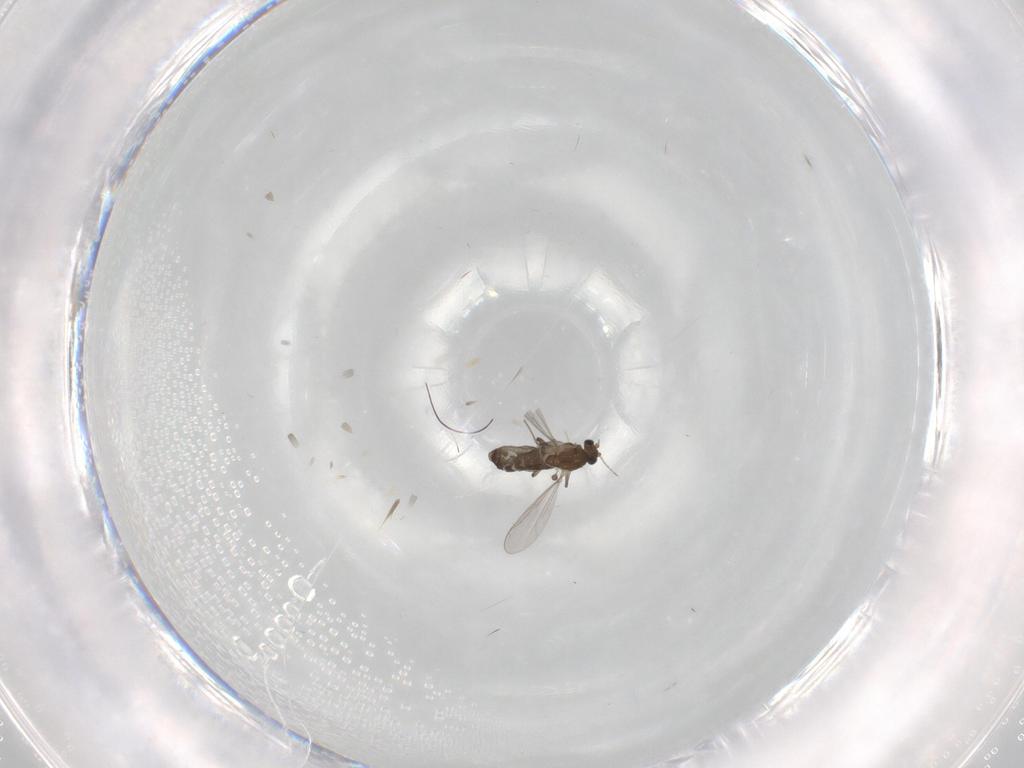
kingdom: Animalia
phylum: Arthropoda
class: Insecta
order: Diptera
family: Chironomidae
